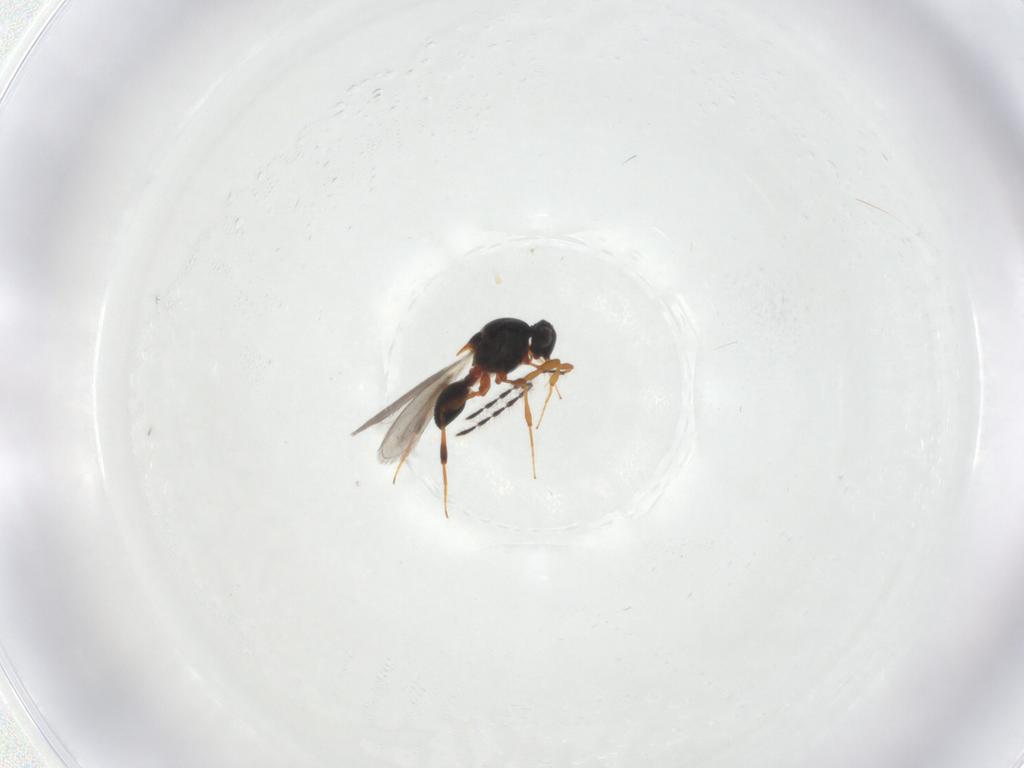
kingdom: Animalia
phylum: Arthropoda
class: Insecta
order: Hymenoptera
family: Formicidae
